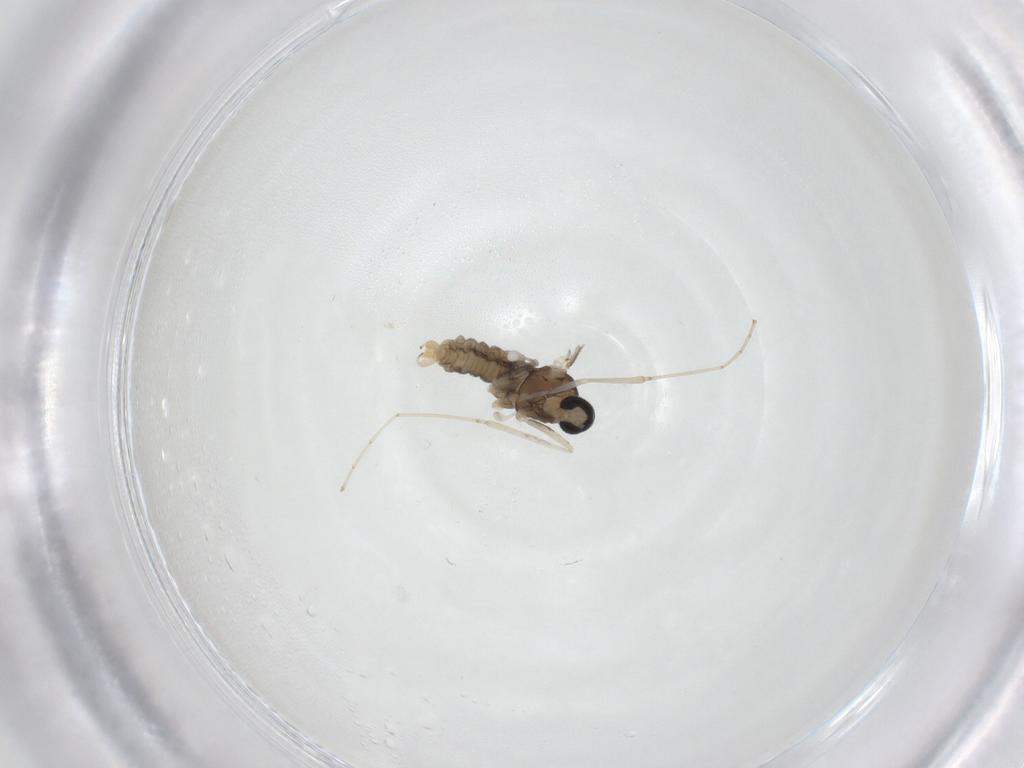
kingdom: Animalia
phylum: Arthropoda
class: Insecta
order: Diptera
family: Cecidomyiidae
